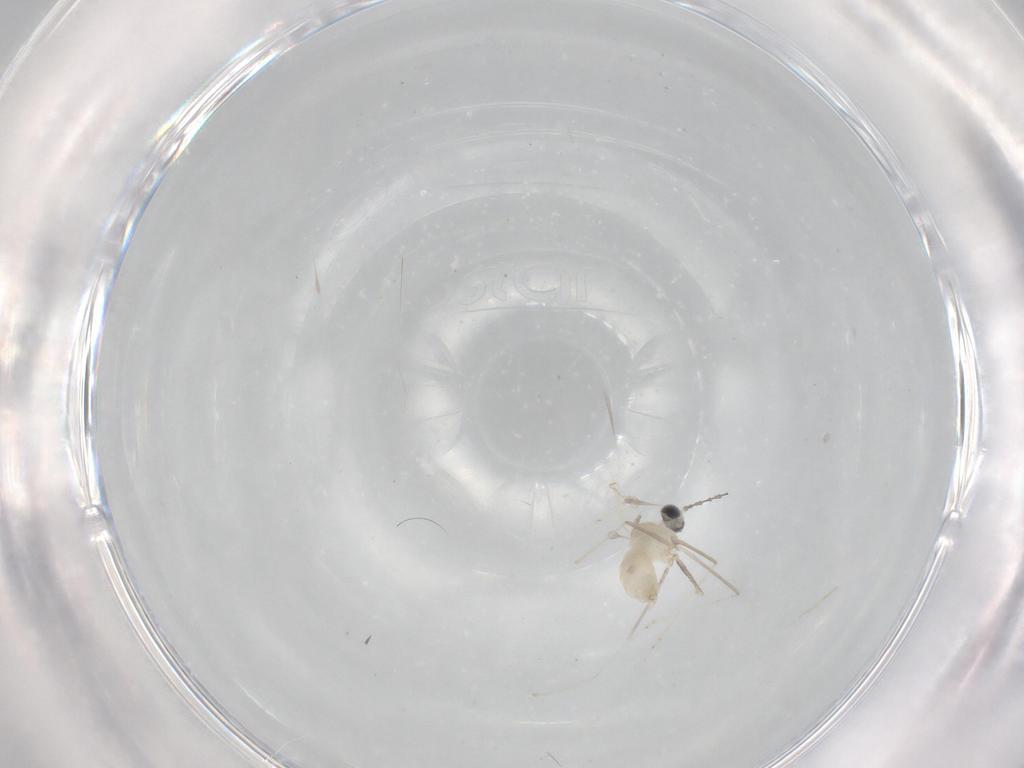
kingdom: Animalia
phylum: Arthropoda
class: Insecta
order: Diptera
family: Cecidomyiidae
